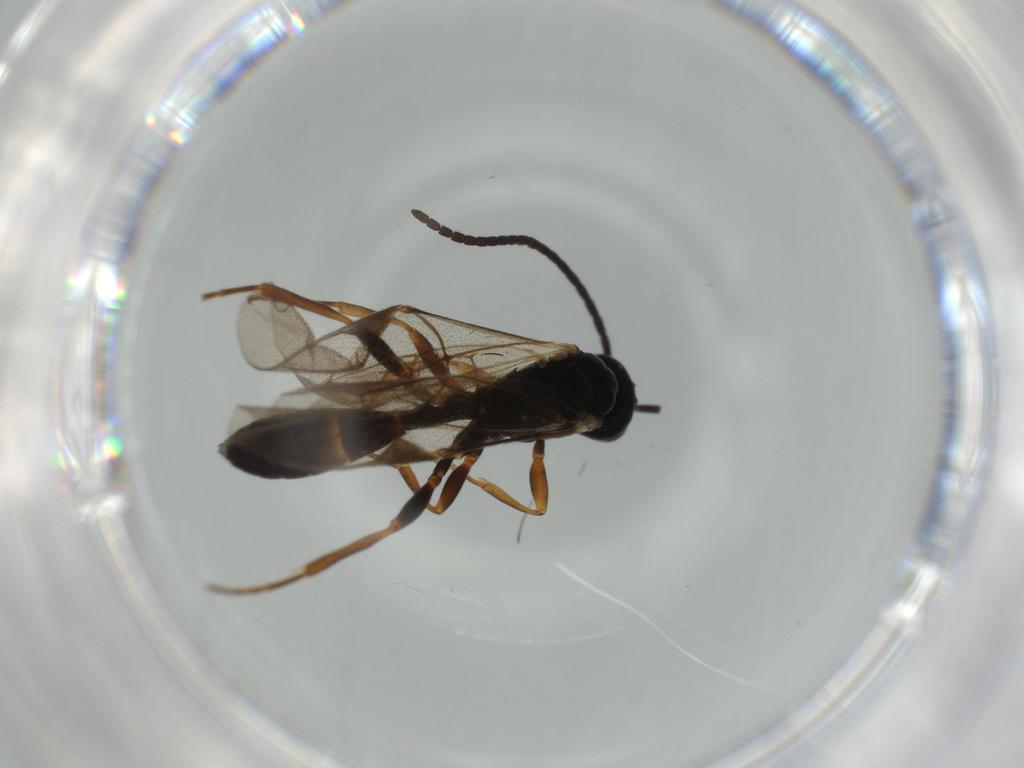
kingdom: Animalia
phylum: Arthropoda
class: Insecta
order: Hymenoptera
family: Ichneumonidae
